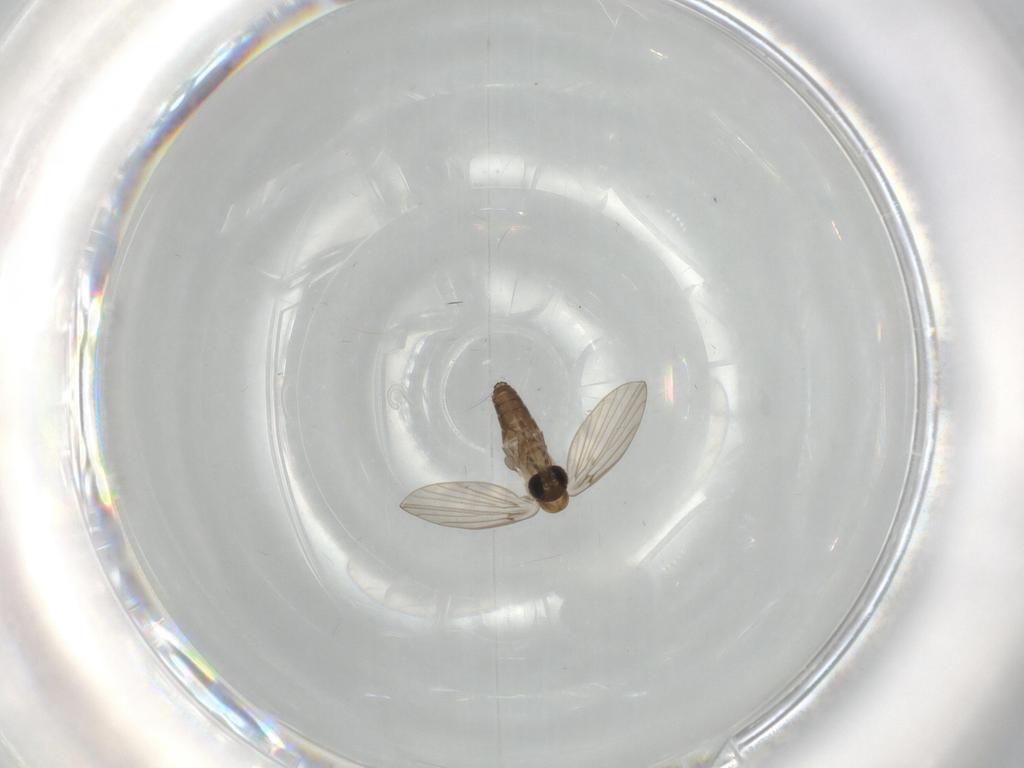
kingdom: Animalia
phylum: Arthropoda
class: Insecta
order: Diptera
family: Psychodidae
